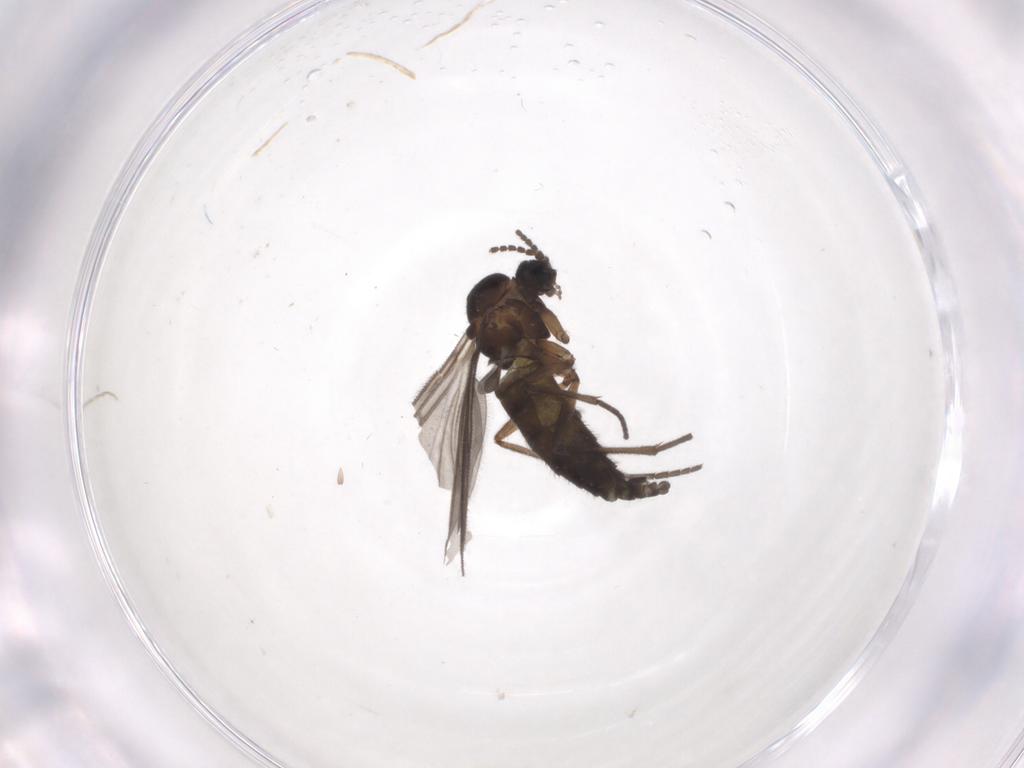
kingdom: Animalia
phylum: Arthropoda
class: Insecta
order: Diptera
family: Sciaridae
